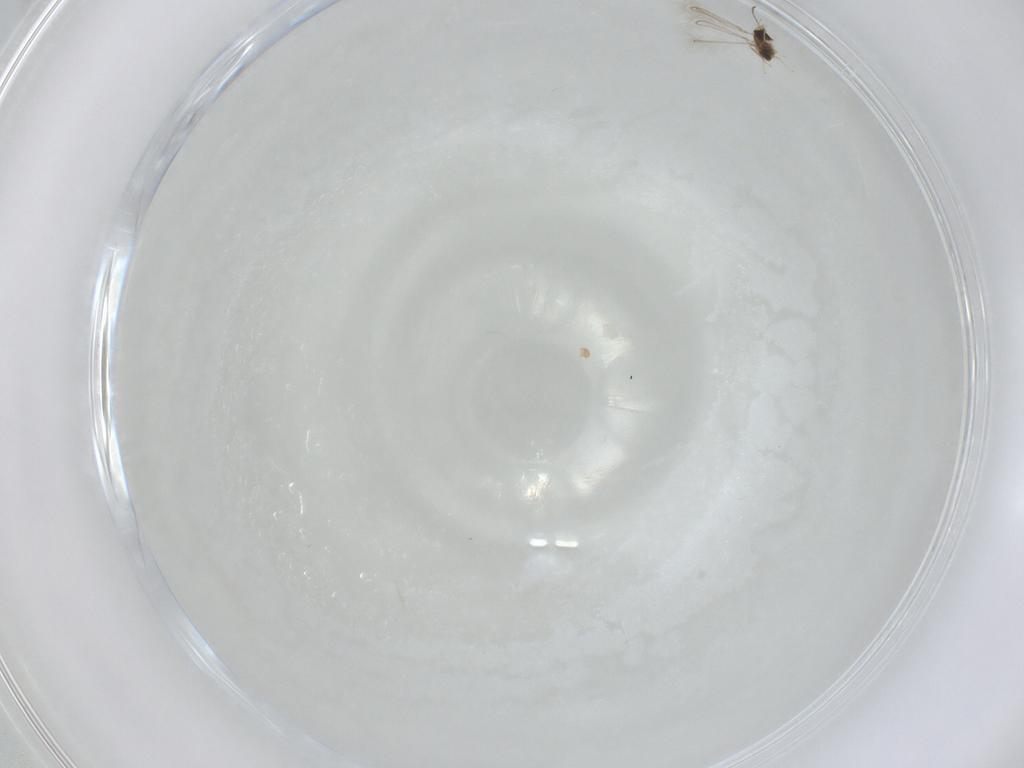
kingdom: Animalia
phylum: Arthropoda
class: Insecta
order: Hymenoptera
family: Mymaridae
